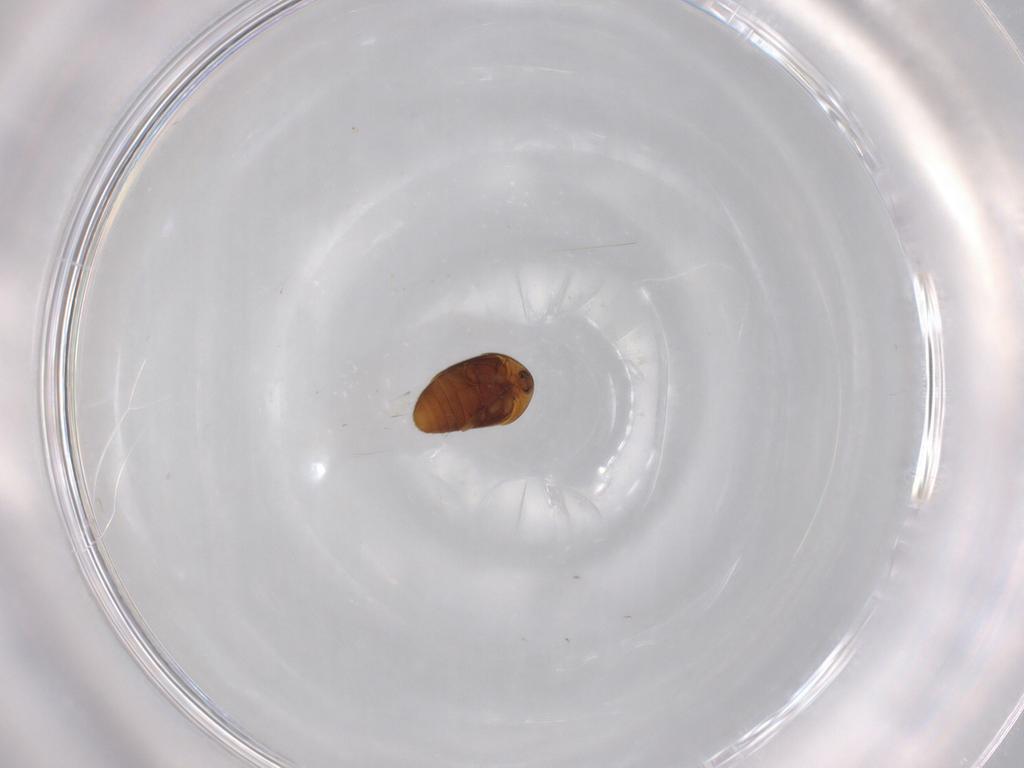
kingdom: Animalia
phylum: Arthropoda
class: Insecta
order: Coleoptera
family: Corylophidae
